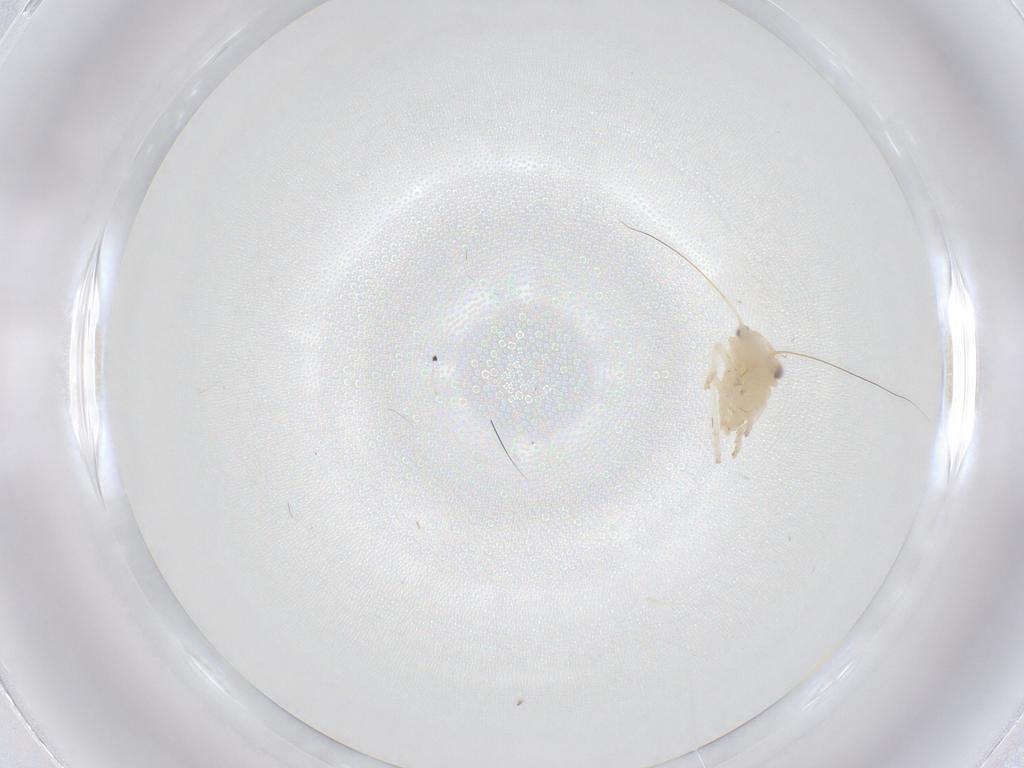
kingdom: Animalia
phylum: Arthropoda
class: Insecta
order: Hemiptera
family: Cicadellidae
